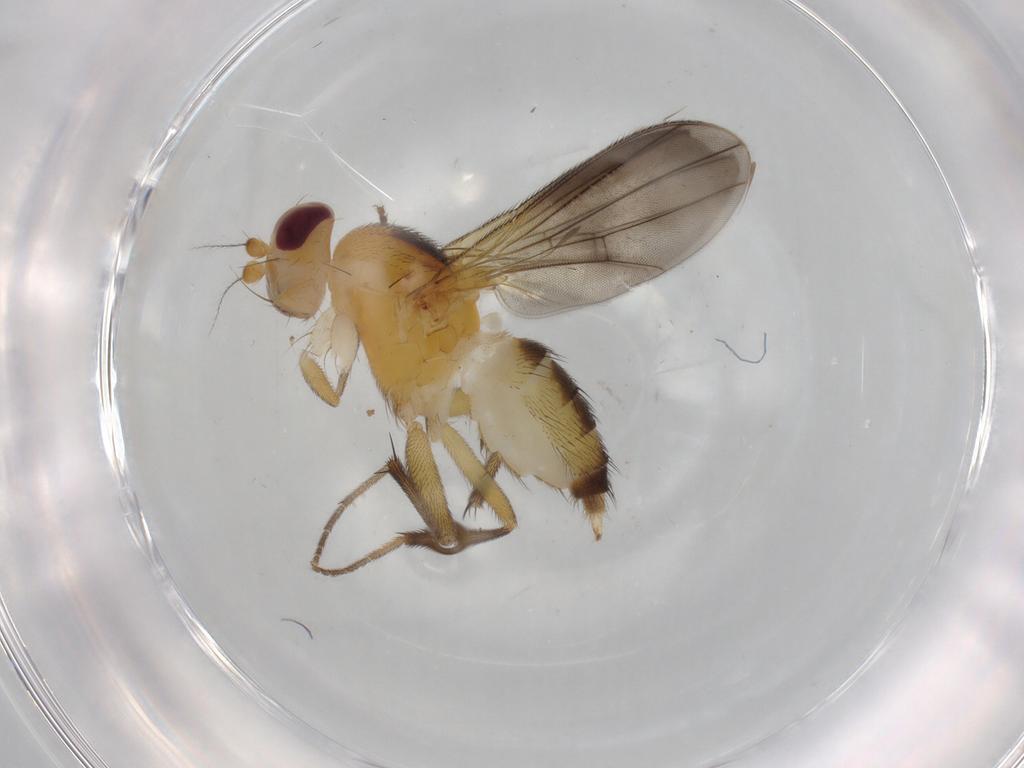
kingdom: Animalia
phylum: Arthropoda
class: Insecta
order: Diptera
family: Clusiidae
